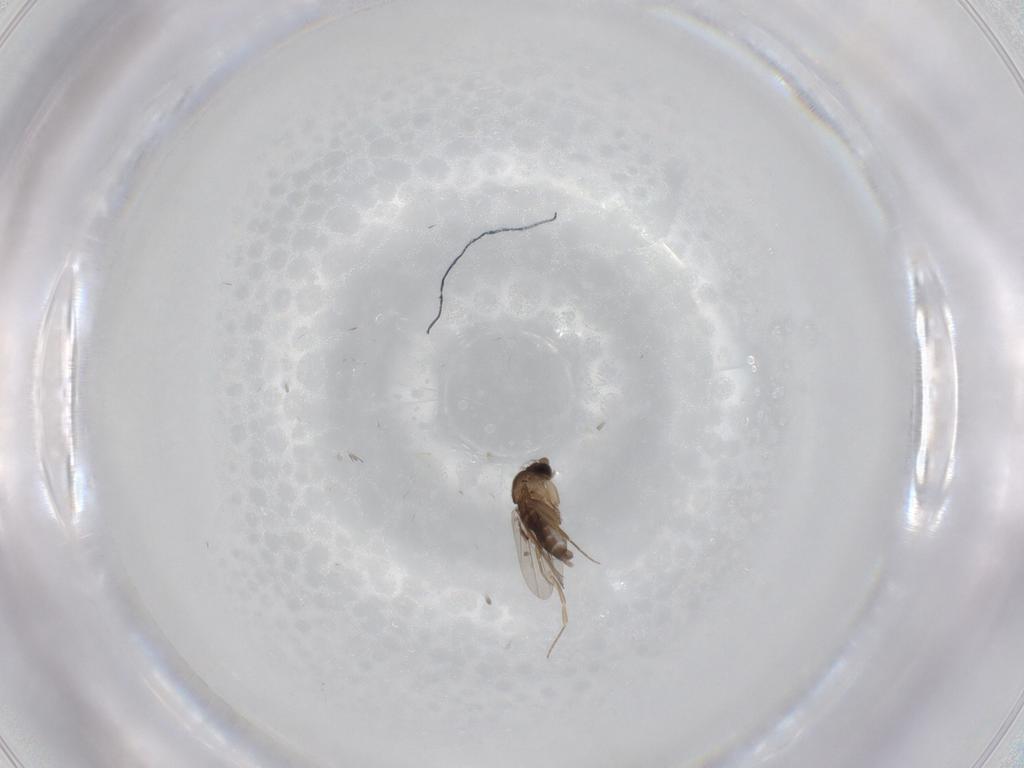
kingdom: Animalia
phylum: Arthropoda
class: Insecta
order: Diptera
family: Cecidomyiidae
